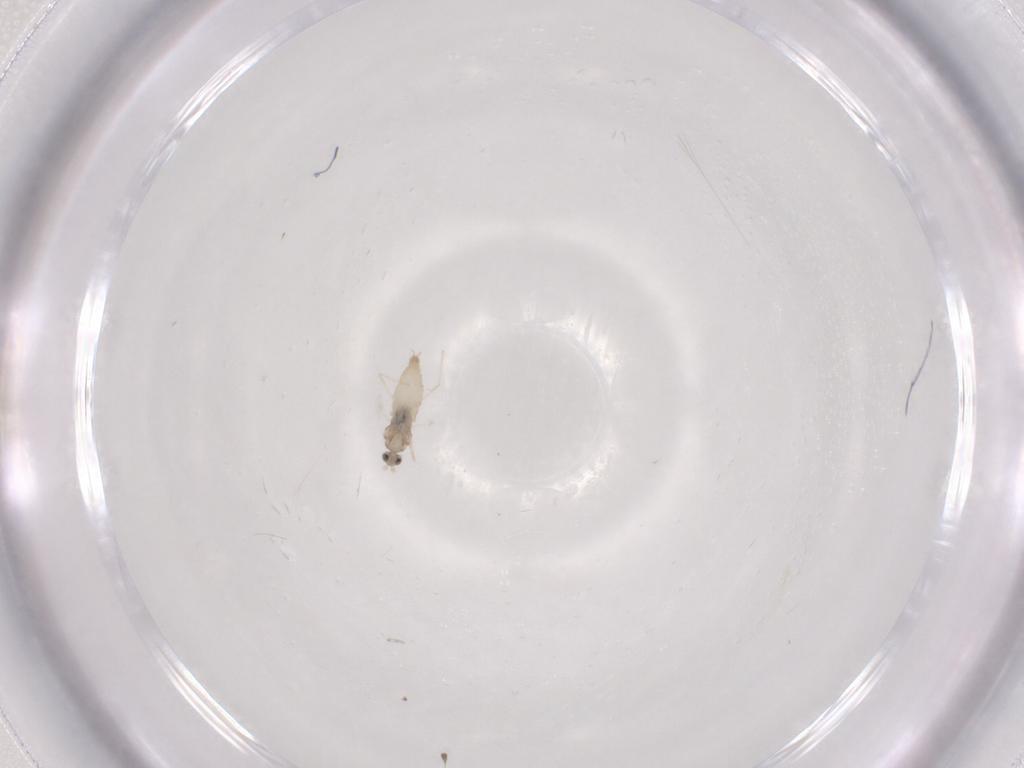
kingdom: Animalia
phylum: Arthropoda
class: Insecta
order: Diptera
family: Cecidomyiidae
